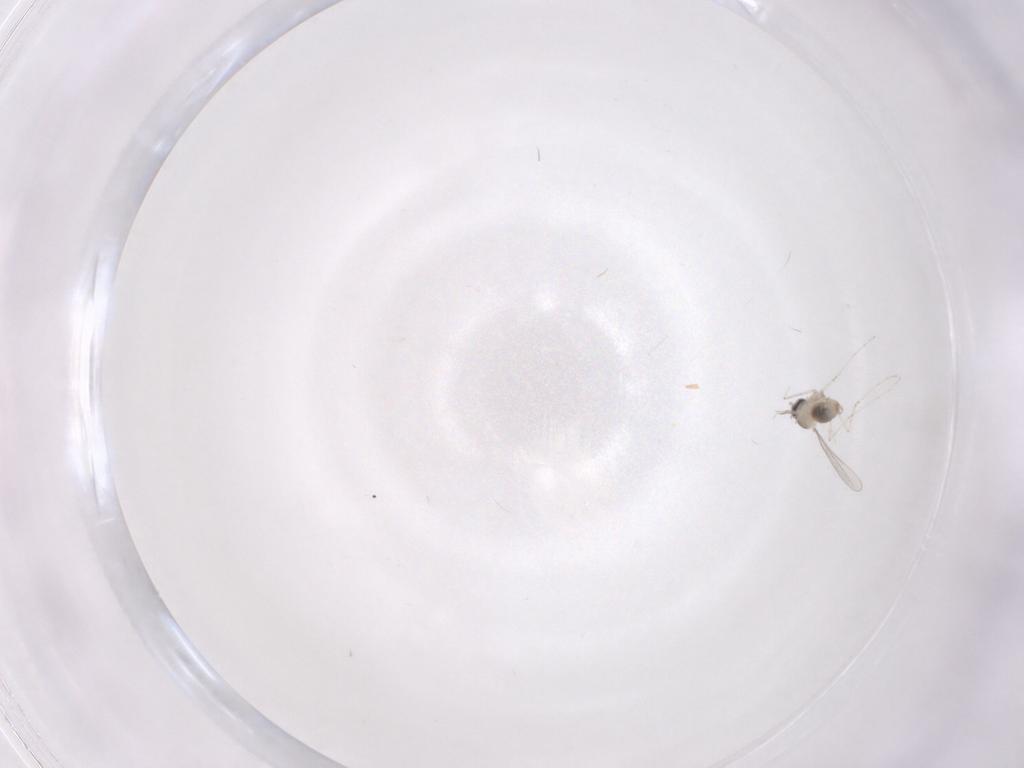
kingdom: Animalia
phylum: Arthropoda
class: Insecta
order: Diptera
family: Cecidomyiidae
